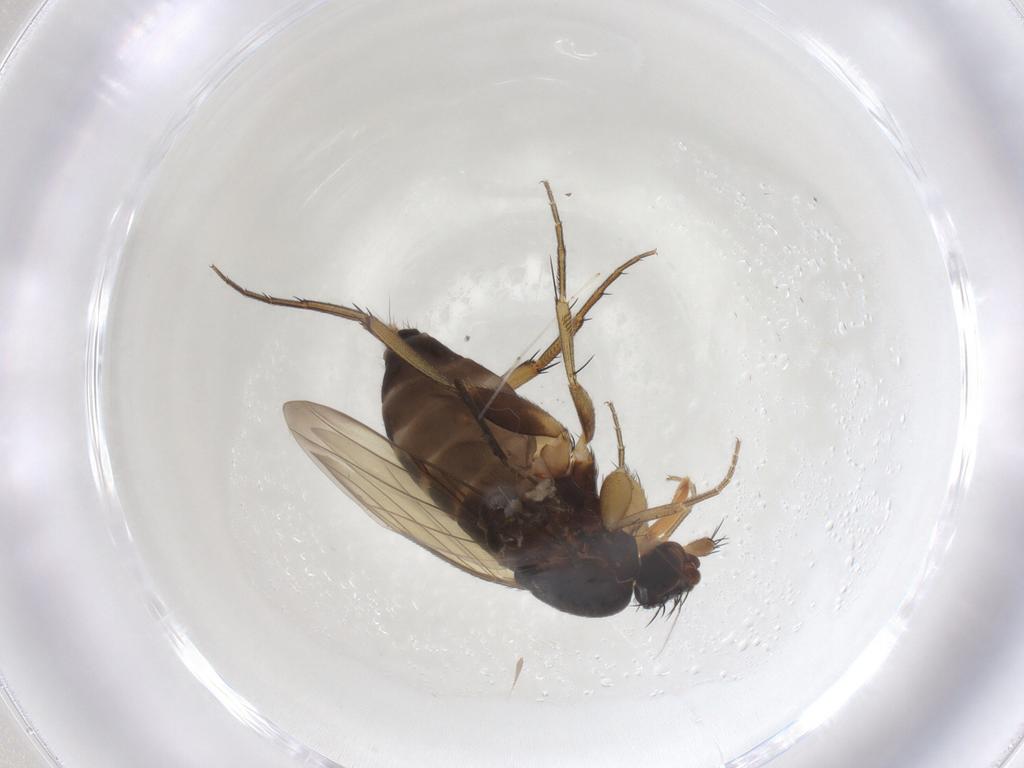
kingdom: Animalia
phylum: Arthropoda
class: Insecta
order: Diptera
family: Phoridae
